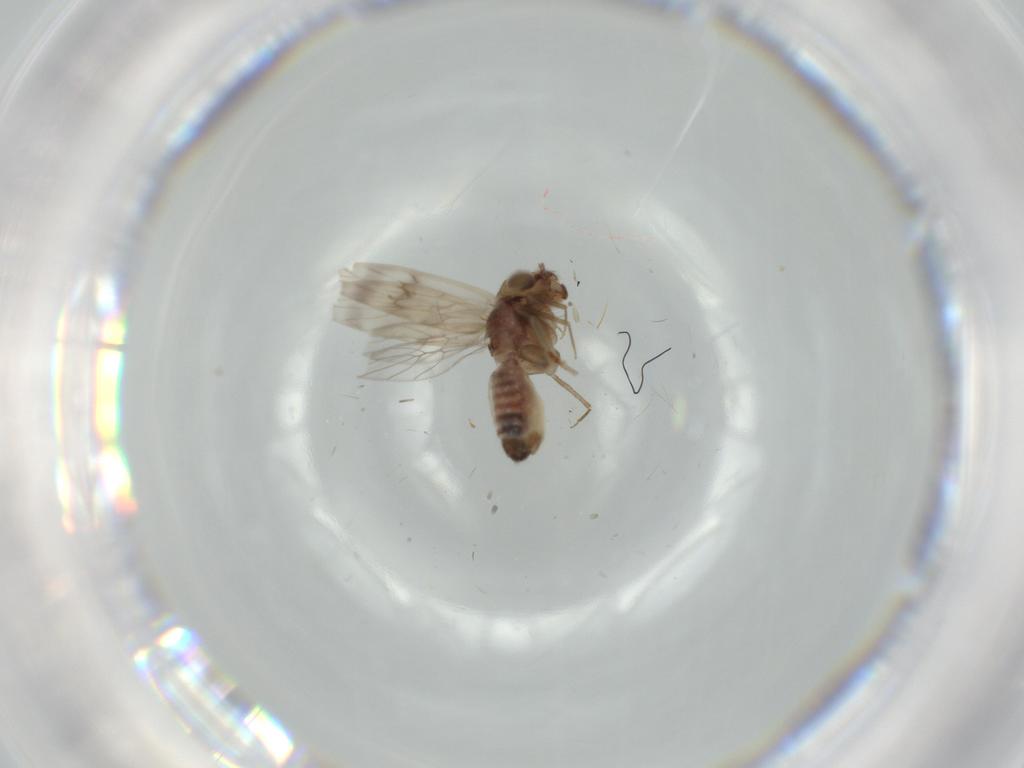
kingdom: Animalia
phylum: Arthropoda
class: Insecta
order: Psocodea
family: Lepidopsocidae
